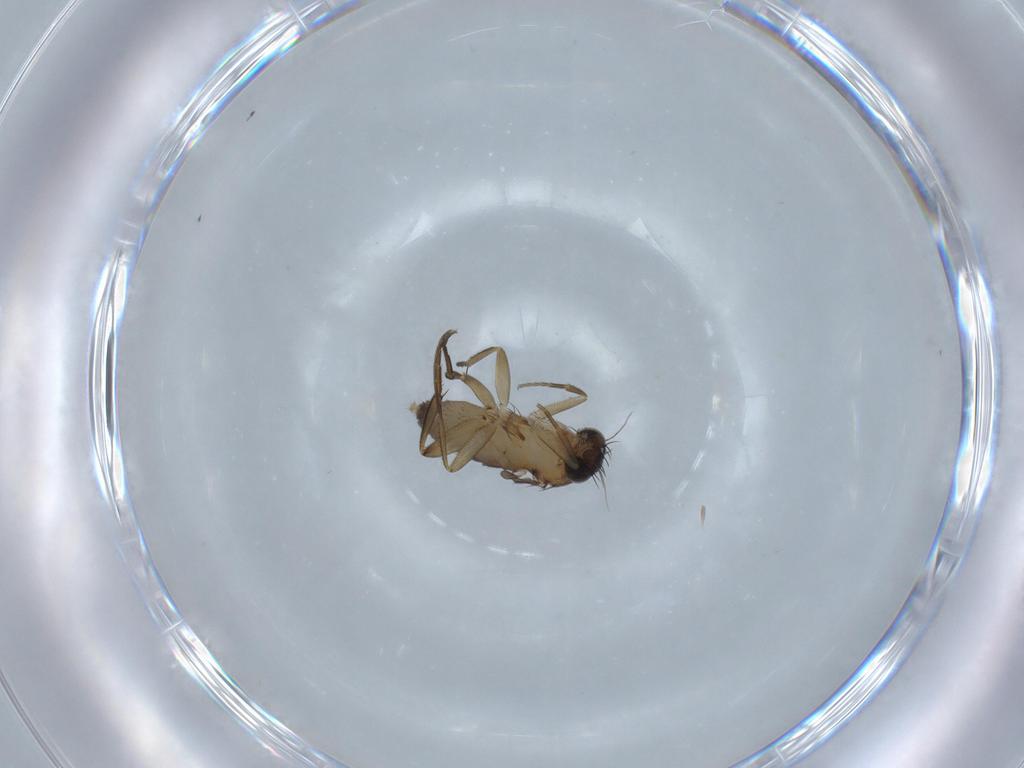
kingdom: Animalia
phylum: Arthropoda
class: Insecta
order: Diptera
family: Phoridae
